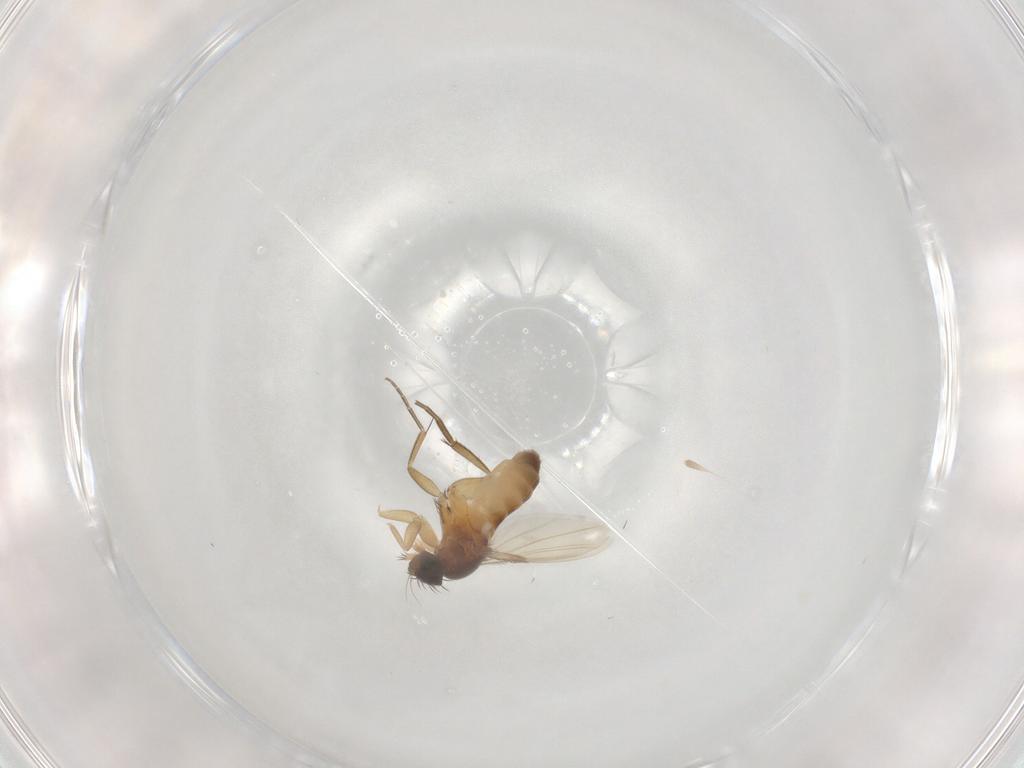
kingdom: Animalia
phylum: Arthropoda
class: Insecta
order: Diptera
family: Phoridae
